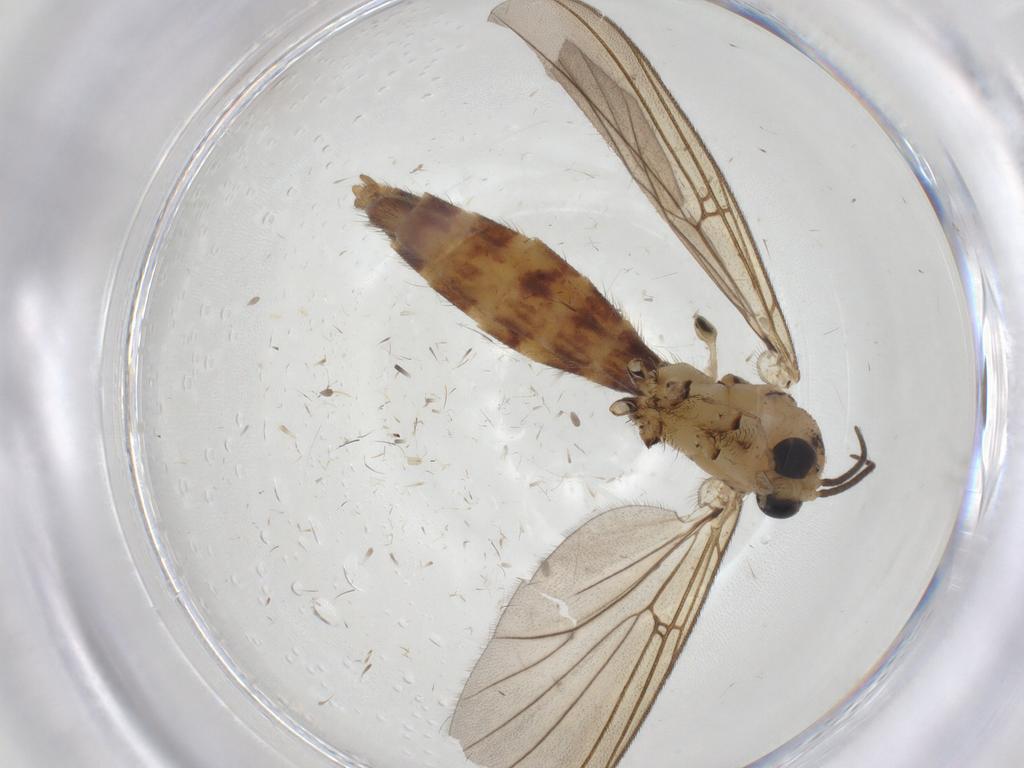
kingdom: Animalia
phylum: Arthropoda
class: Insecta
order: Diptera
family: Mycetophilidae
